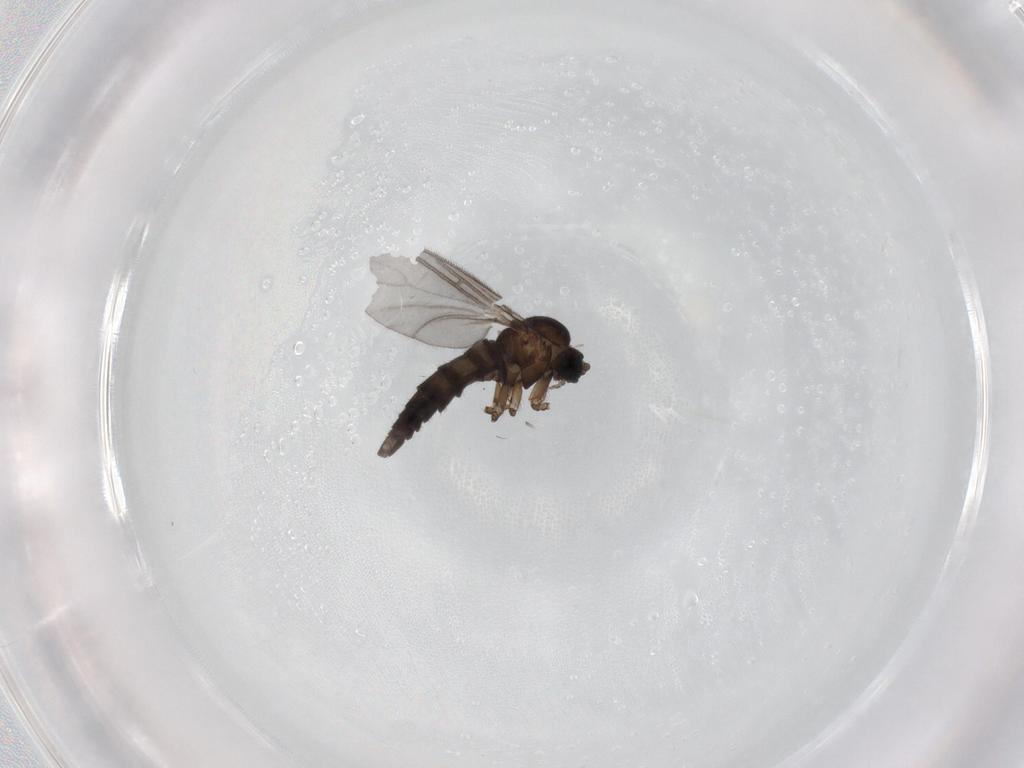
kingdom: Animalia
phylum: Arthropoda
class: Insecta
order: Diptera
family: Sciaridae
